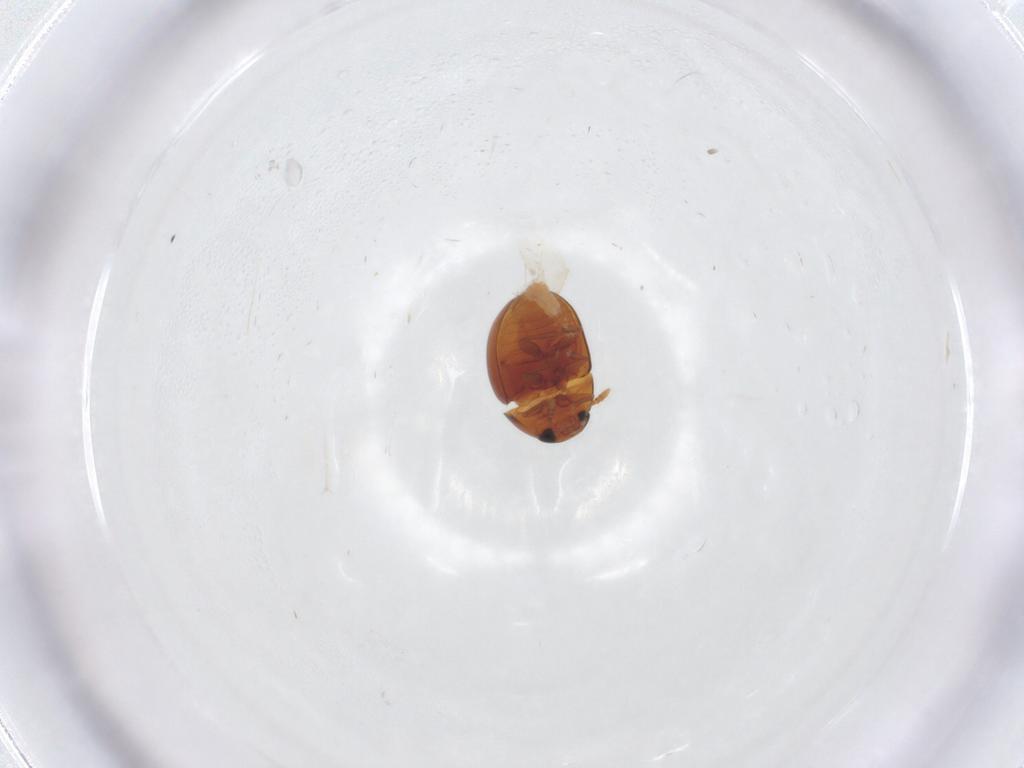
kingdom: Animalia
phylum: Arthropoda
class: Insecta
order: Coleoptera
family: Phalacridae
